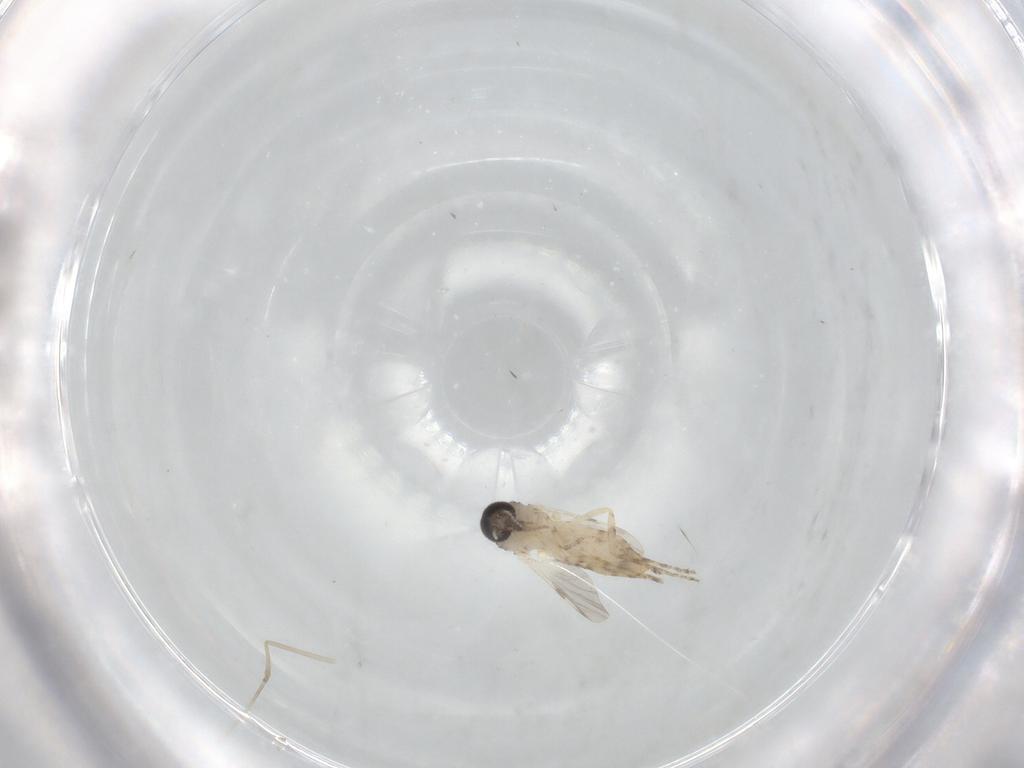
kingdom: Animalia
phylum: Arthropoda
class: Insecta
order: Diptera
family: Ceratopogonidae
